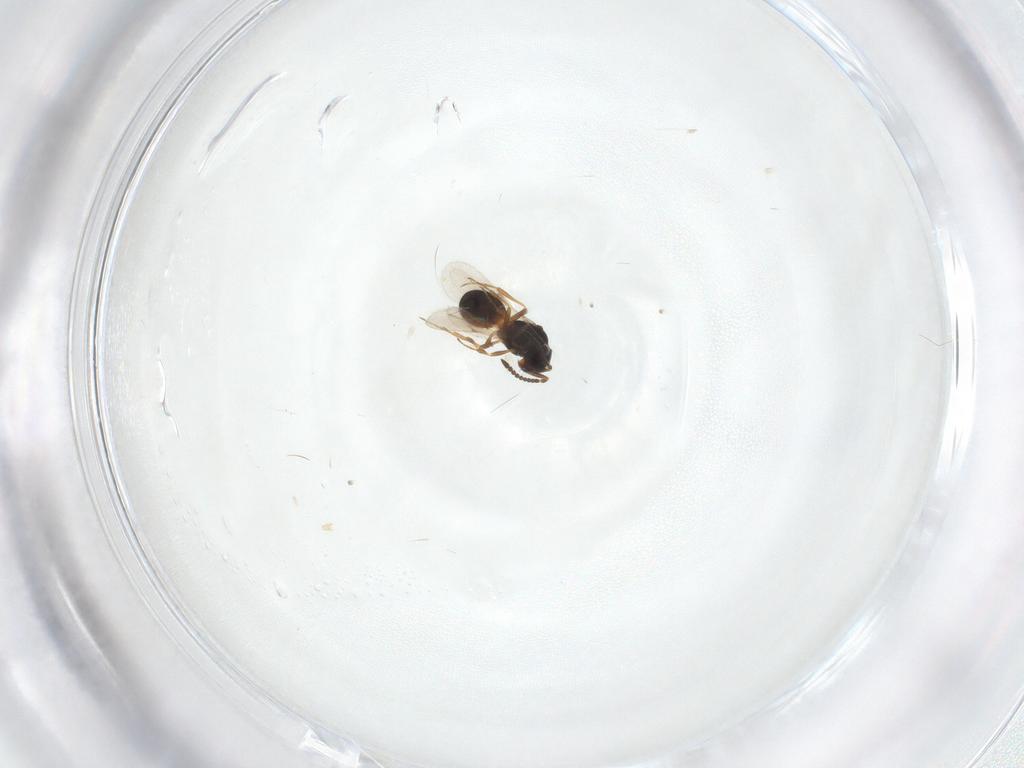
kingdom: Animalia
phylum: Arthropoda
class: Insecta
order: Hymenoptera
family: Scelionidae
